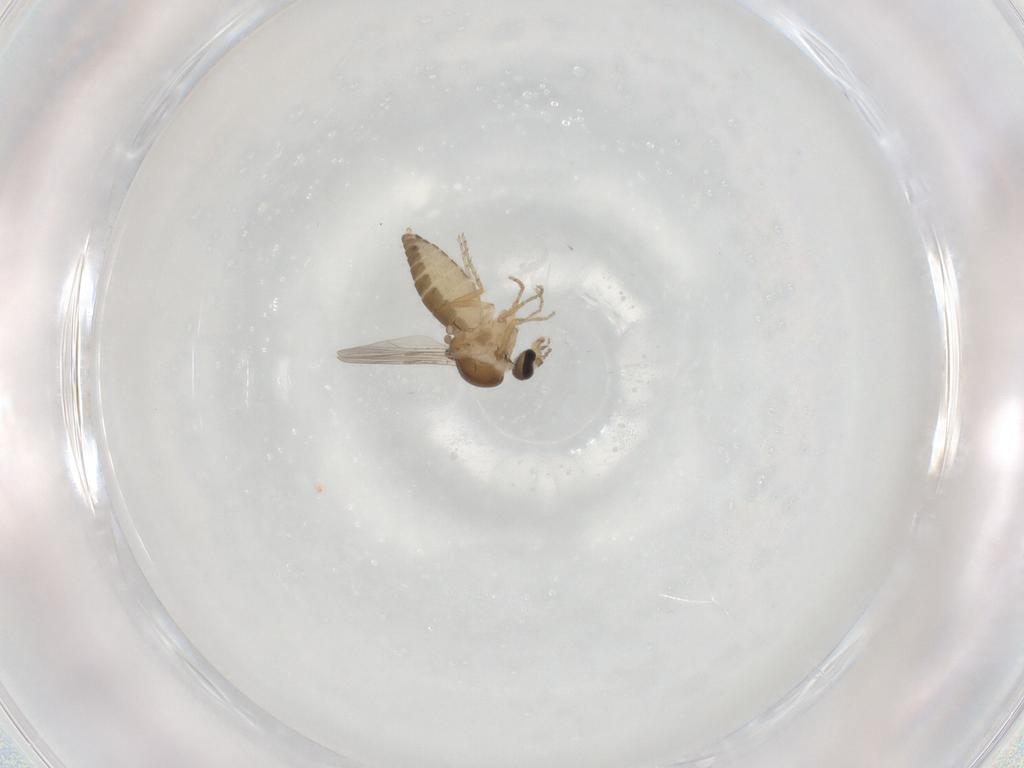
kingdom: Animalia
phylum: Arthropoda
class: Insecta
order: Diptera
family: Ceratopogonidae
